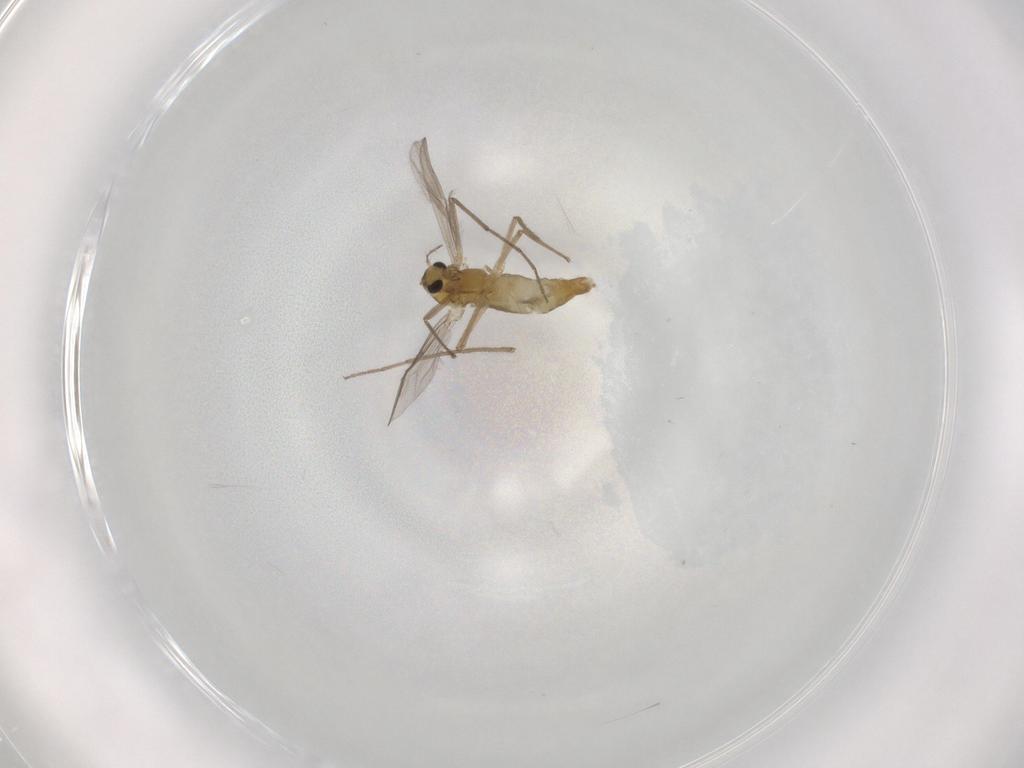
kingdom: Animalia
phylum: Arthropoda
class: Insecta
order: Diptera
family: Chironomidae
